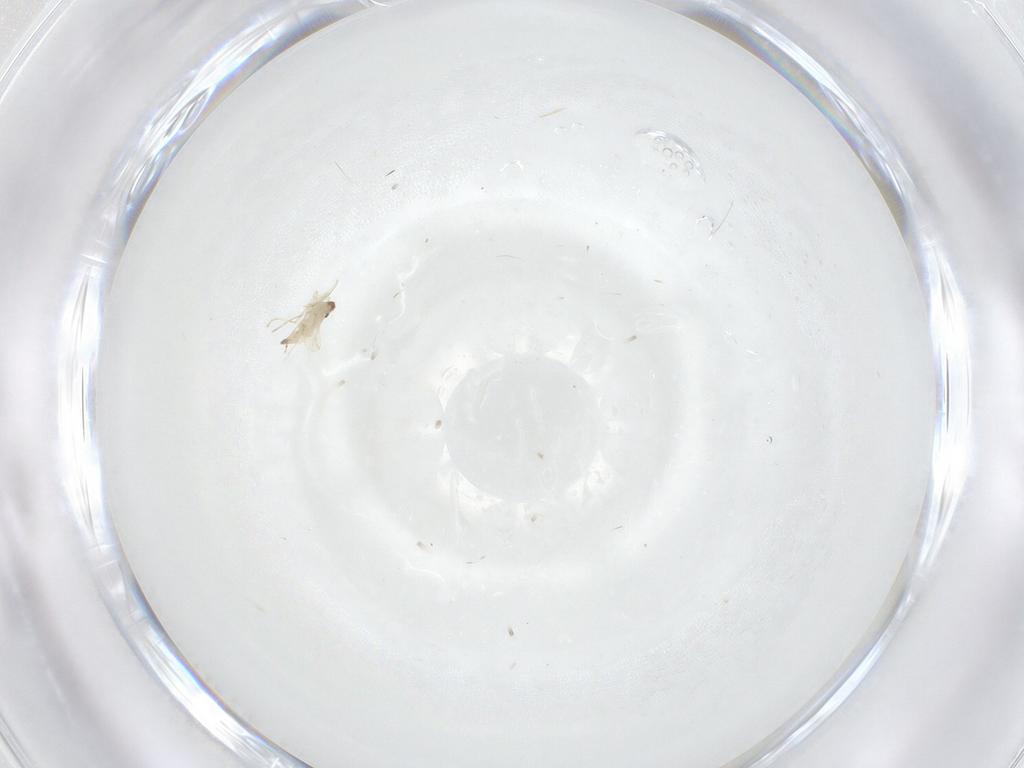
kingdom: Animalia
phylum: Arthropoda
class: Insecta
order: Diptera
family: Cecidomyiidae
